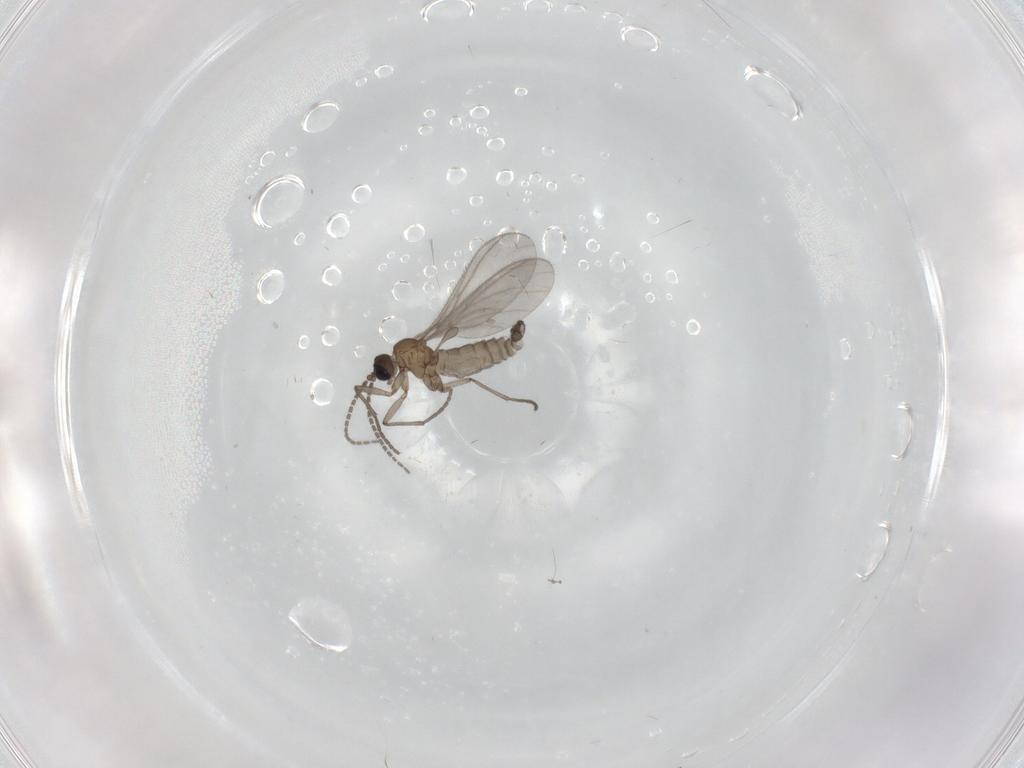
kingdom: Animalia
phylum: Arthropoda
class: Insecta
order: Diptera
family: Sciaridae
